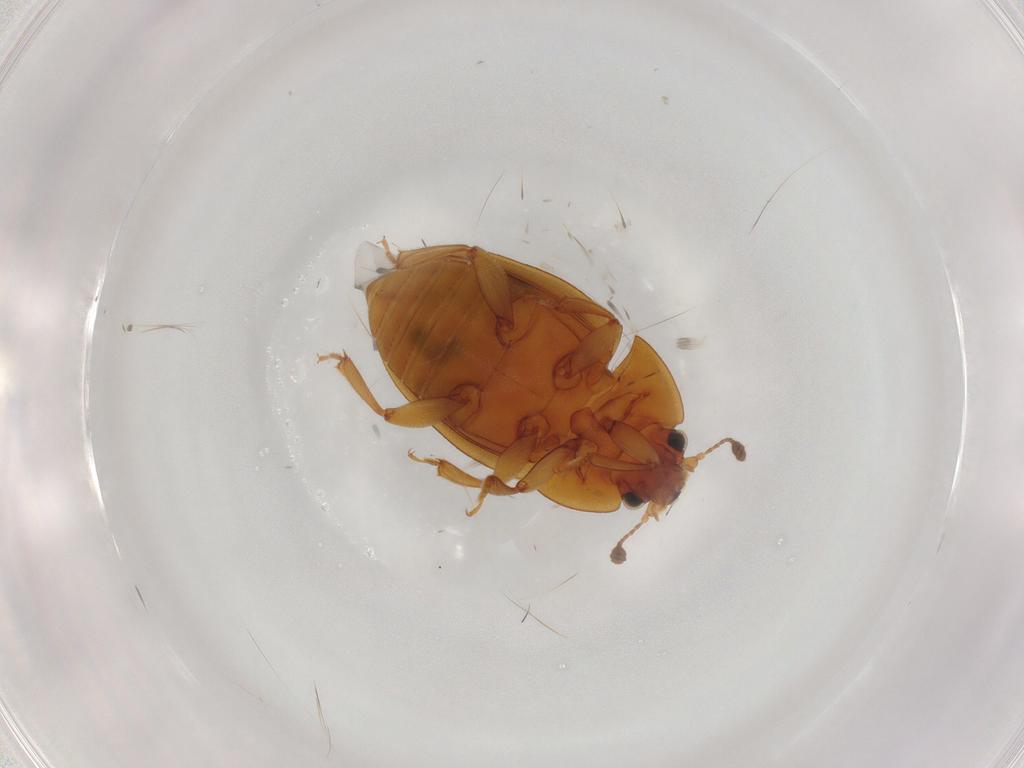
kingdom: Animalia
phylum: Arthropoda
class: Insecta
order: Coleoptera
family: Nitidulidae
